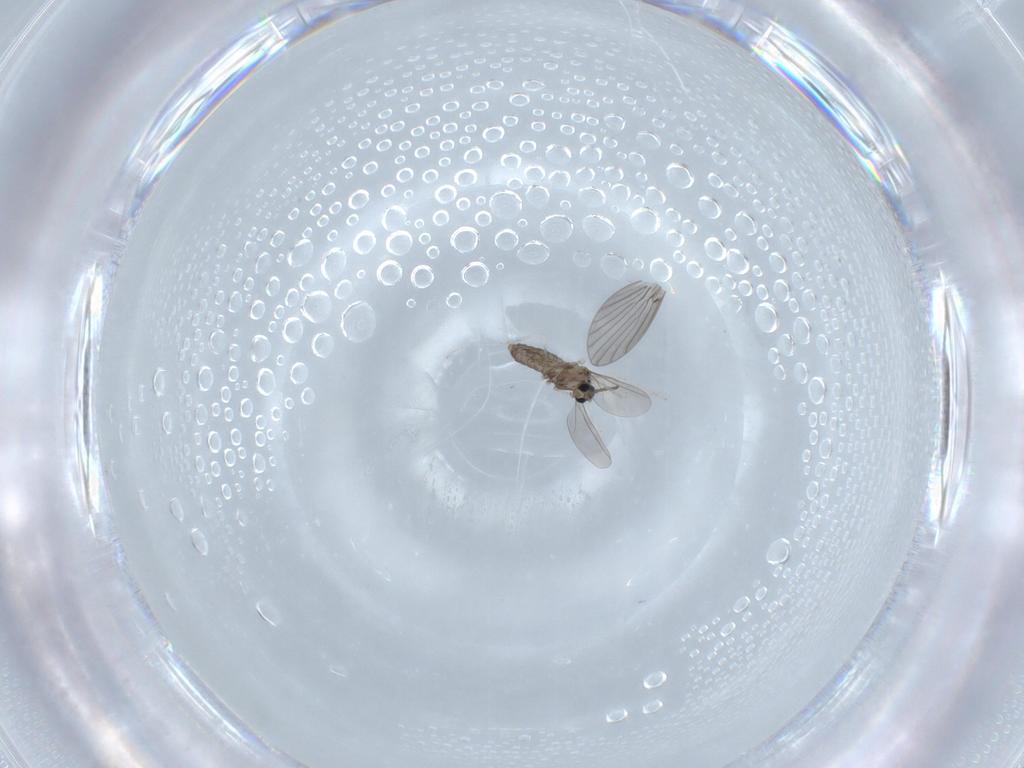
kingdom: Animalia
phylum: Arthropoda
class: Insecta
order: Diptera
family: Cecidomyiidae
